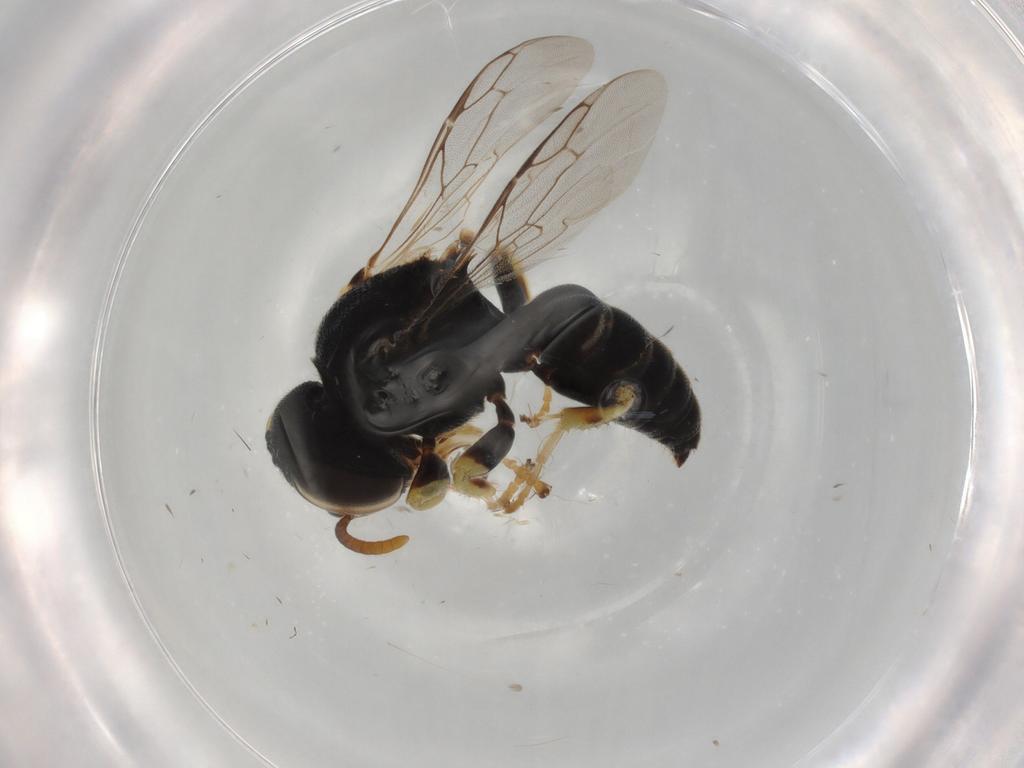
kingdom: Animalia
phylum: Arthropoda
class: Insecta
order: Hymenoptera
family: Crabronidae
